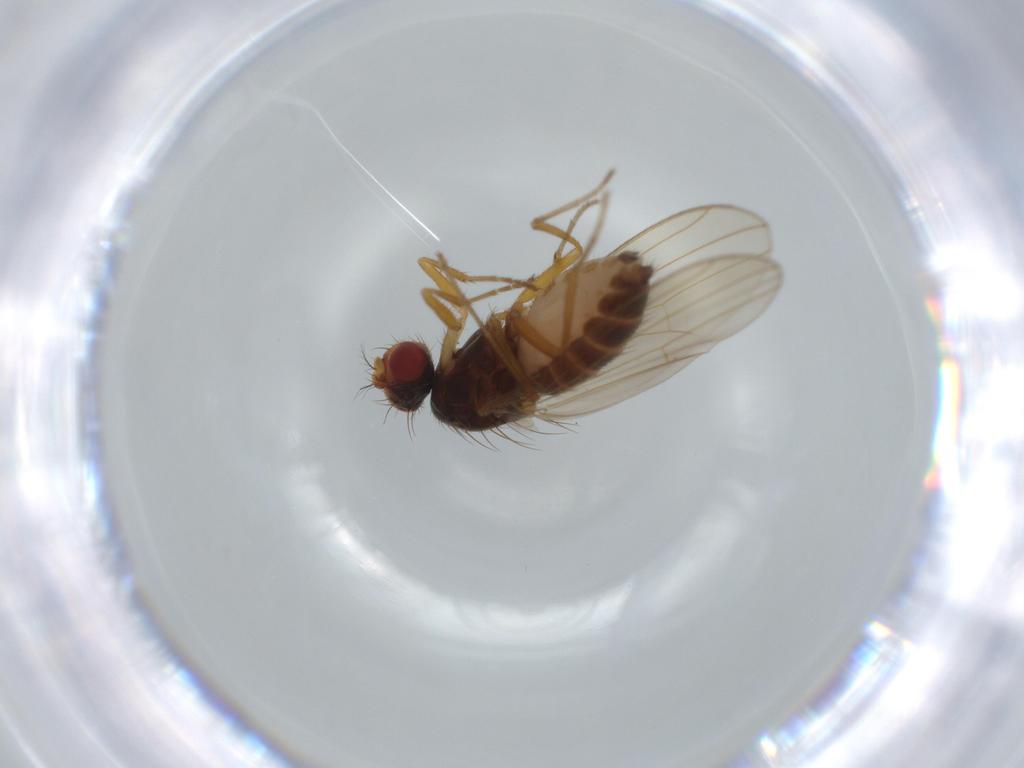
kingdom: Animalia
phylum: Arthropoda
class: Insecta
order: Diptera
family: Drosophilidae
